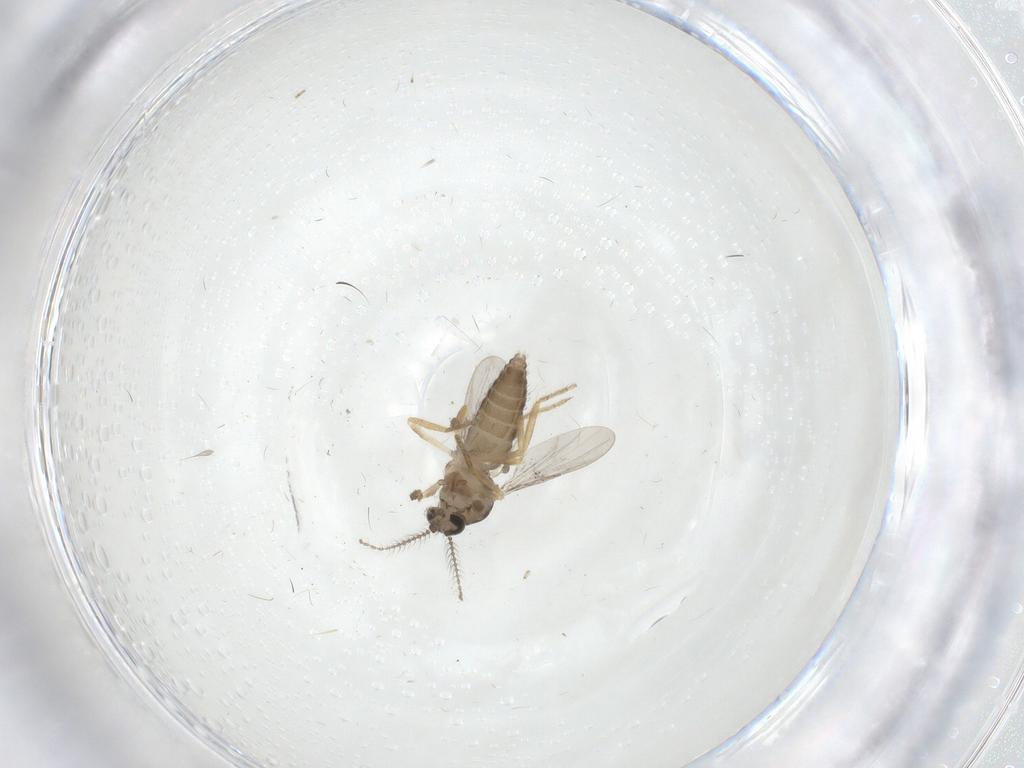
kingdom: Animalia
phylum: Arthropoda
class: Insecta
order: Diptera
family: Ceratopogonidae
